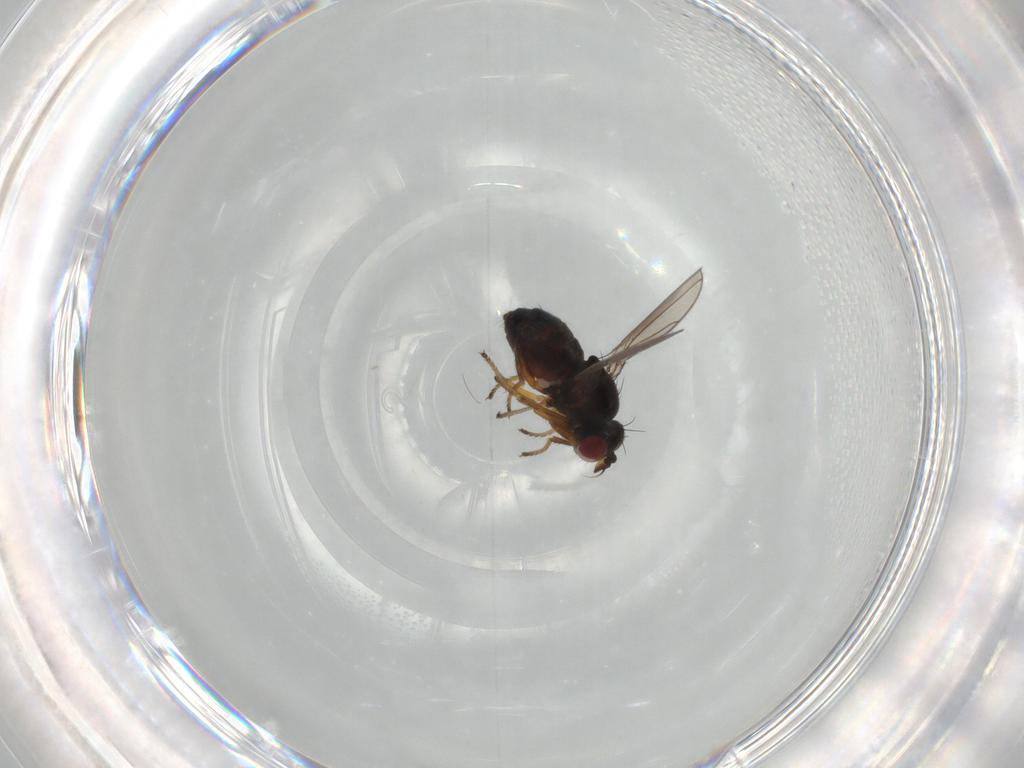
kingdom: Animalia
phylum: Arthropoda
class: Insecta
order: Diptera
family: Ephydridae
